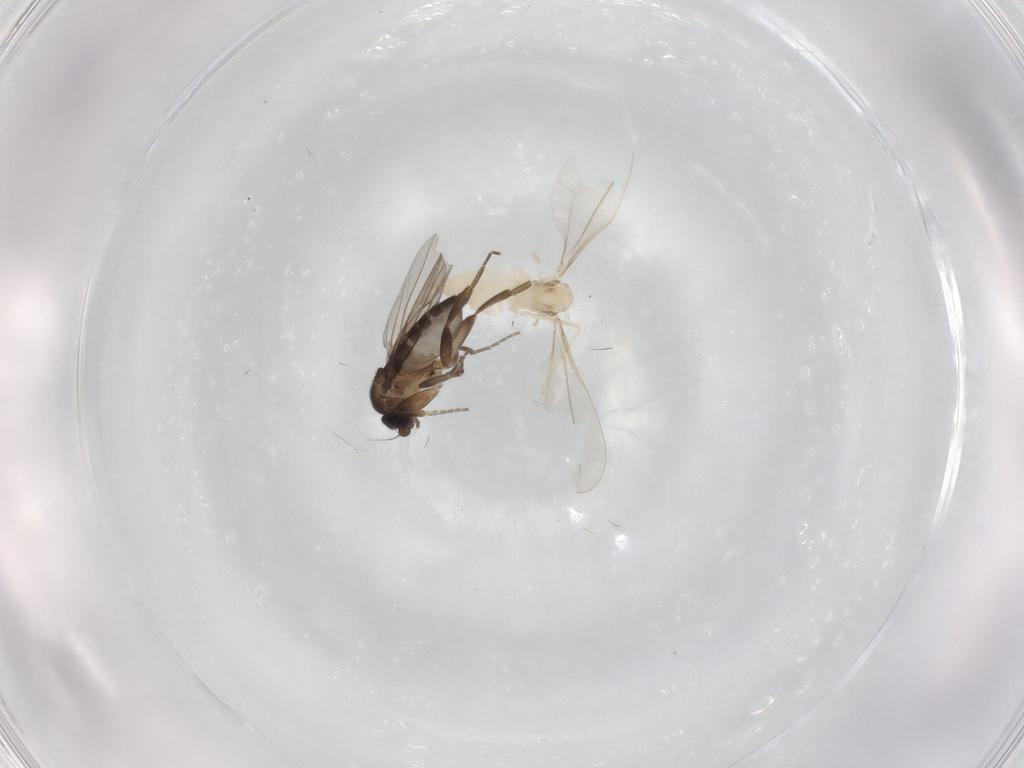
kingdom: Animalia
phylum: Arthropoda
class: Insecta
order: Diptera
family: Cecidomyiidae
